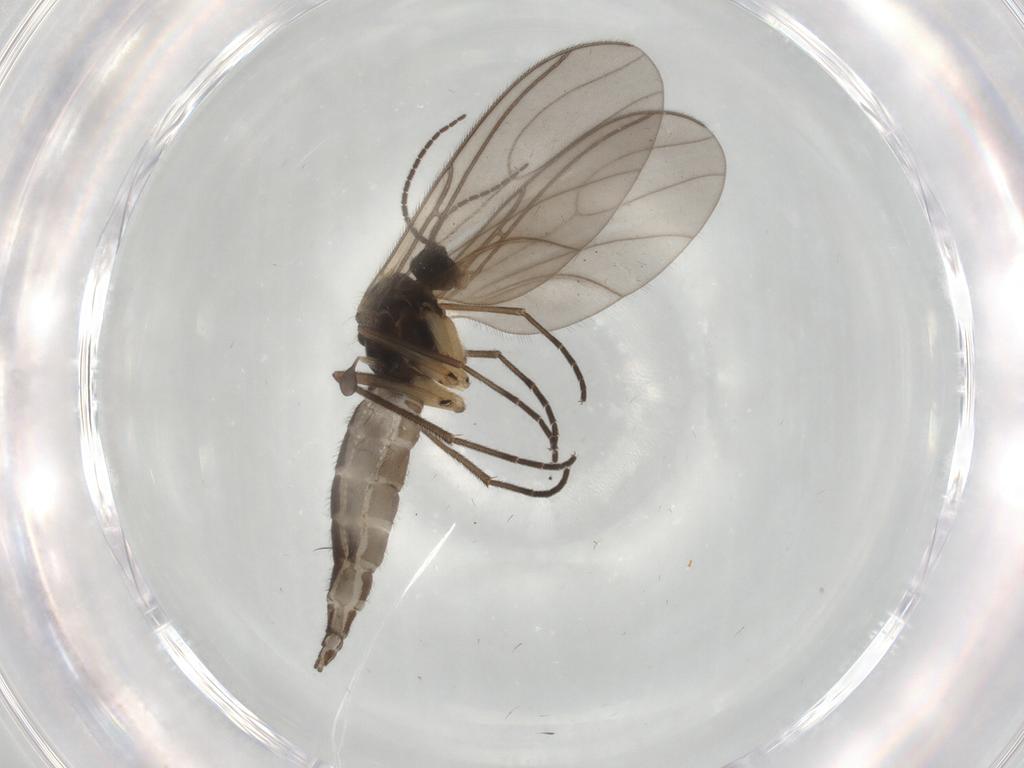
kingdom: Animalia
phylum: Arthropoda
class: Insecta
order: Diptera
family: Sciaridae
